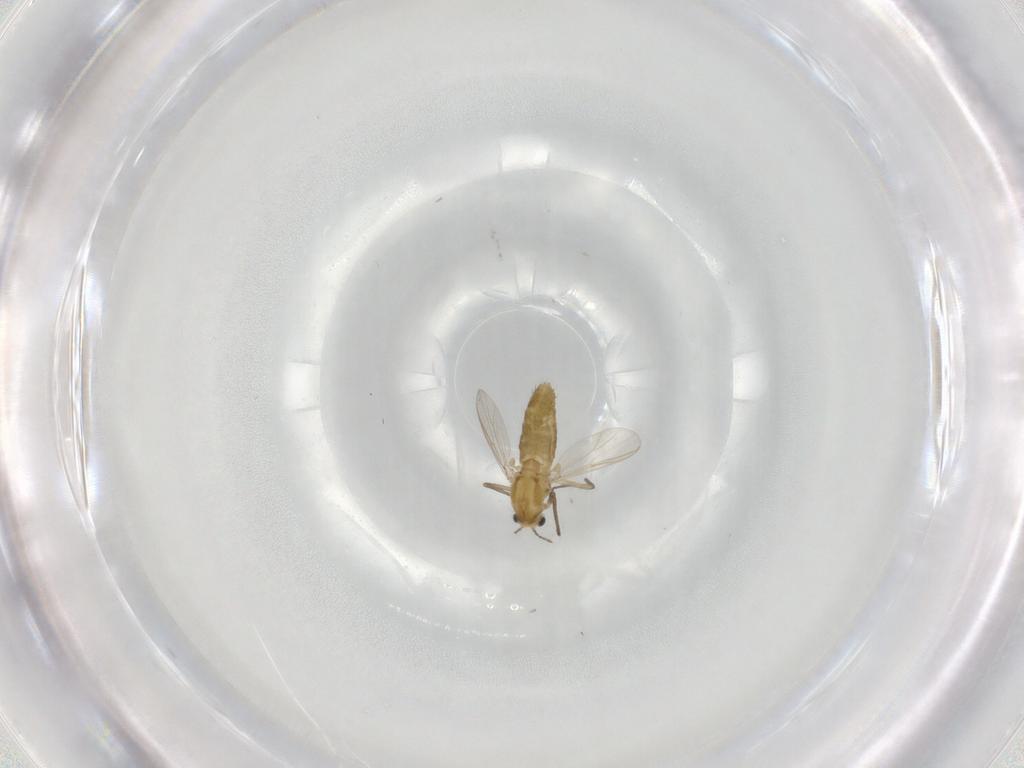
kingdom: Animalia
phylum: Arthropoda
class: Insecta
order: Diptera
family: Chironomidae
